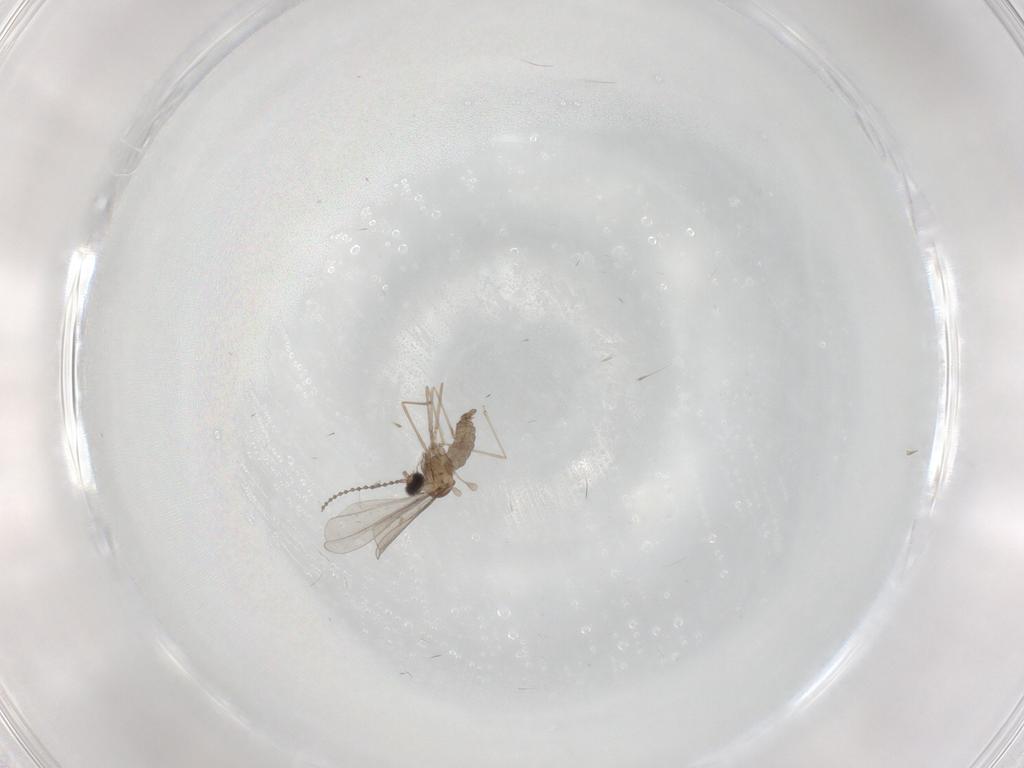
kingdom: Animalia
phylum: Arthropoda
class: Insecta
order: Diptera
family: Cecidomyiidae
